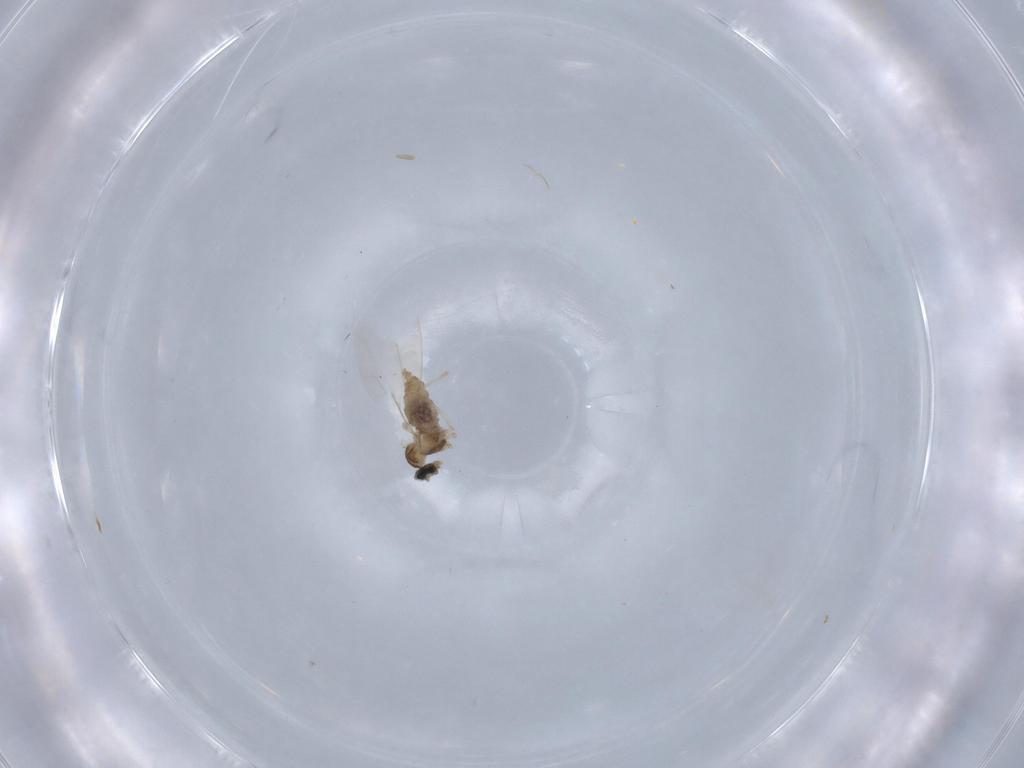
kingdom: Animalia
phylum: Arthropoda
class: Insecta
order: Diptera
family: Cecidomyiidae
